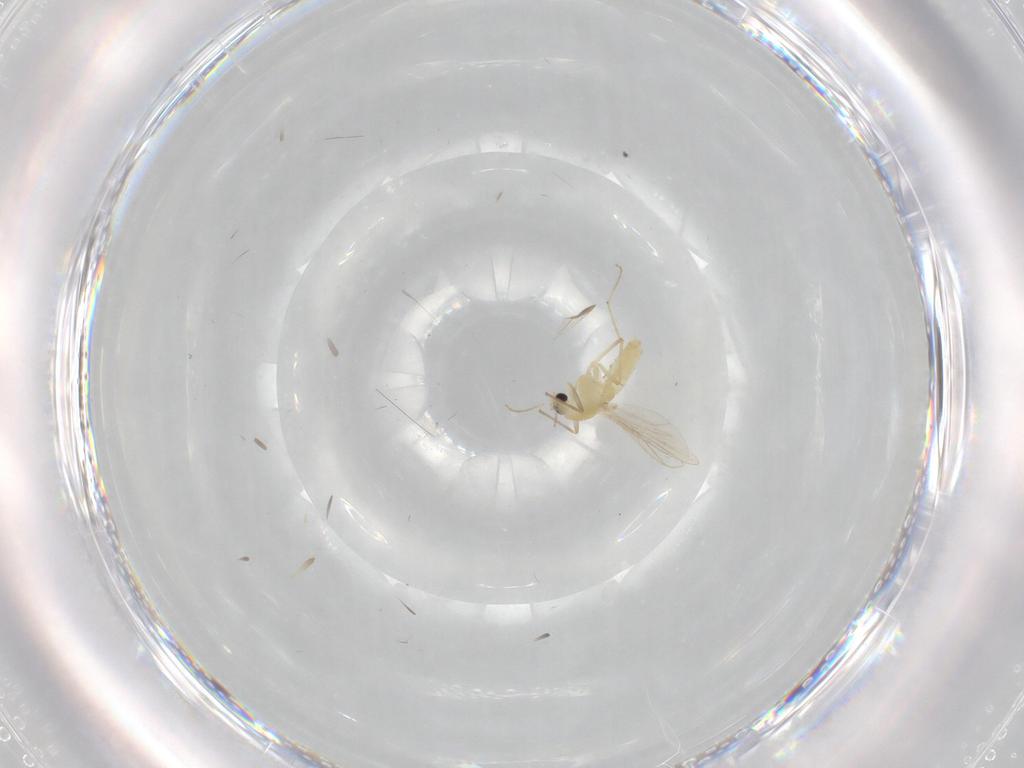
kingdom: Animalia
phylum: Arthropoda
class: Insecta
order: Diptera
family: Chironomidae
